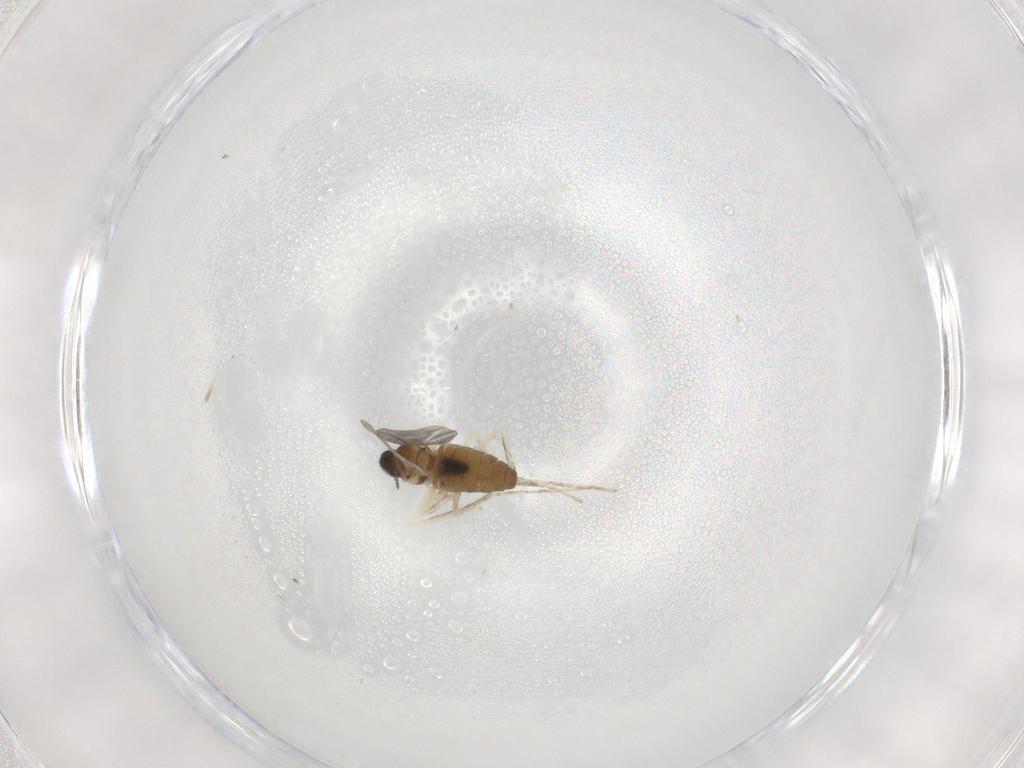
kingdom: Animalia
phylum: Arthropoda
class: Insecta
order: Diptera
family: Cecidomyiidae
